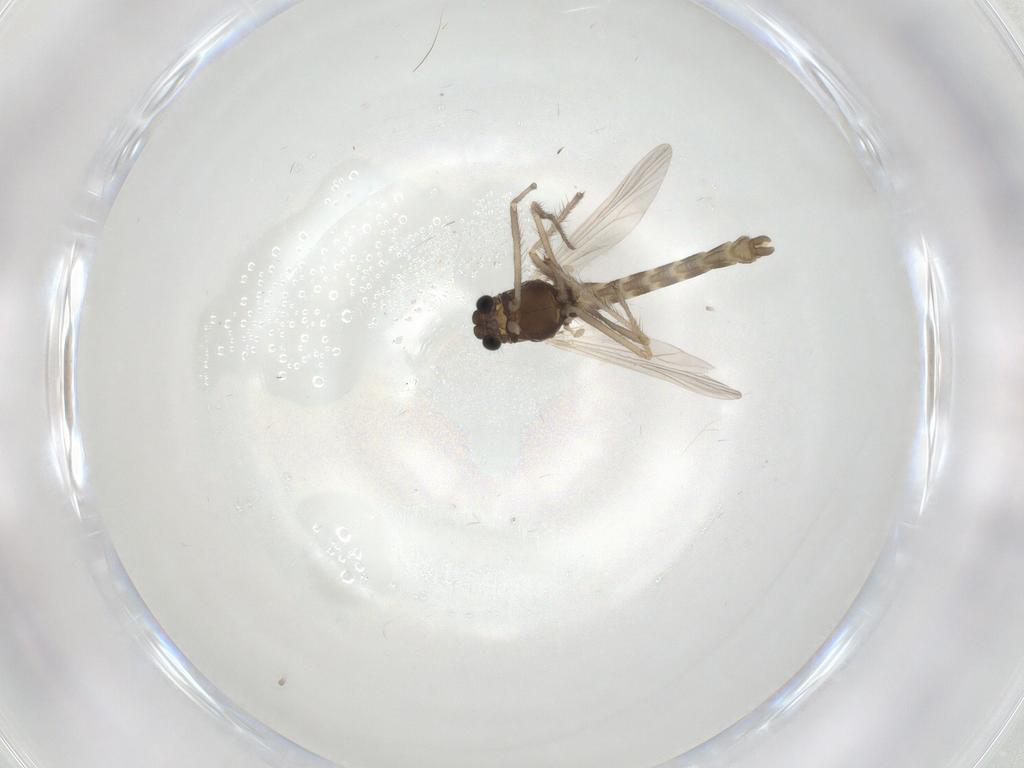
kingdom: Animalia
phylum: Arthropoda
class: Insecta
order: Diptera
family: Chironomidae
